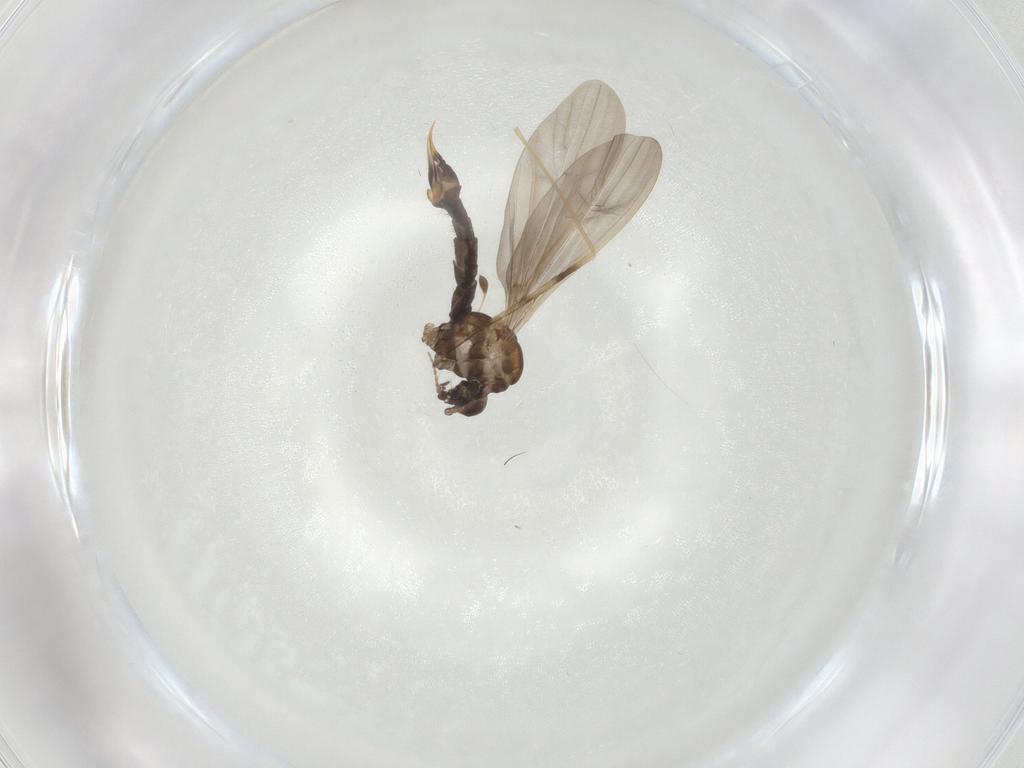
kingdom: Animalia
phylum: Arthropoda
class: Insecta
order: Diptera
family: Limoniidae
